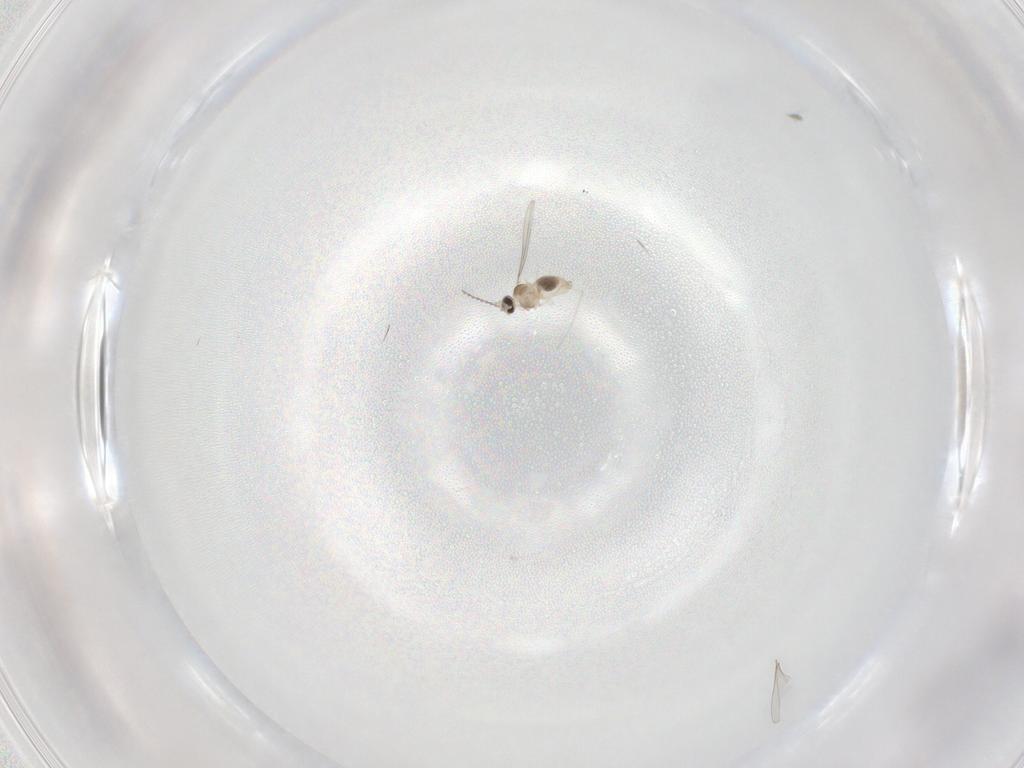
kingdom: Animalia
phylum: Arthropoda
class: Insecta
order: Diptera
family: Cecidomyiidae
